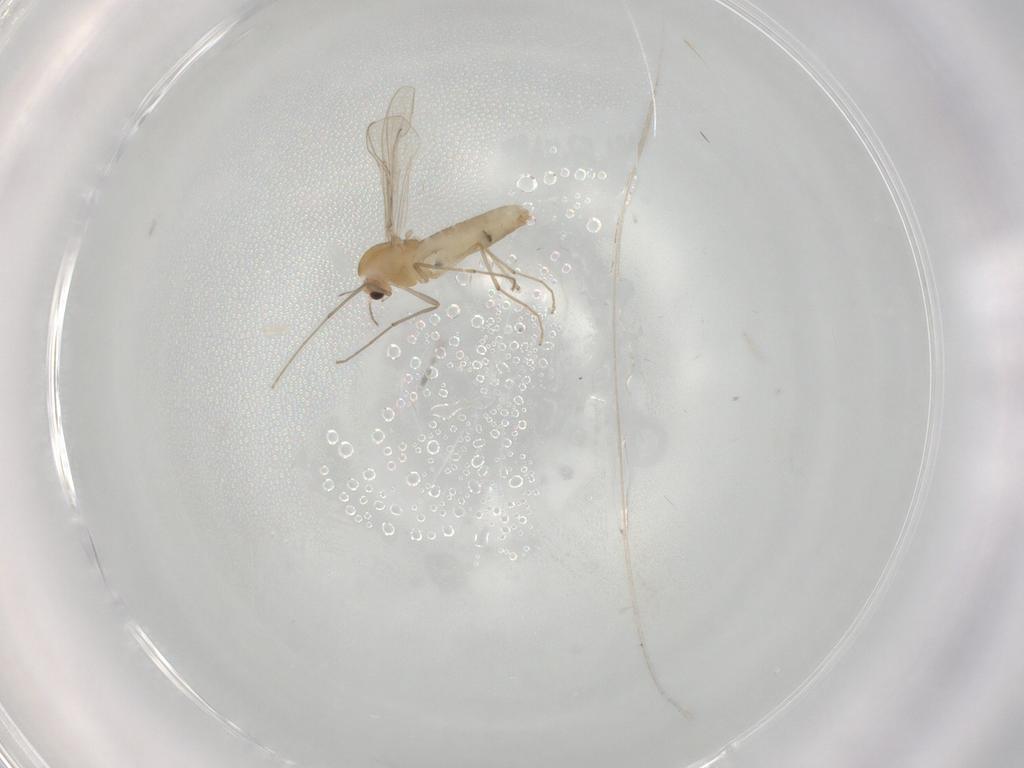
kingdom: Animalia
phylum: Arthropoda
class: Insecta
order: Diptera
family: Chironomidae
